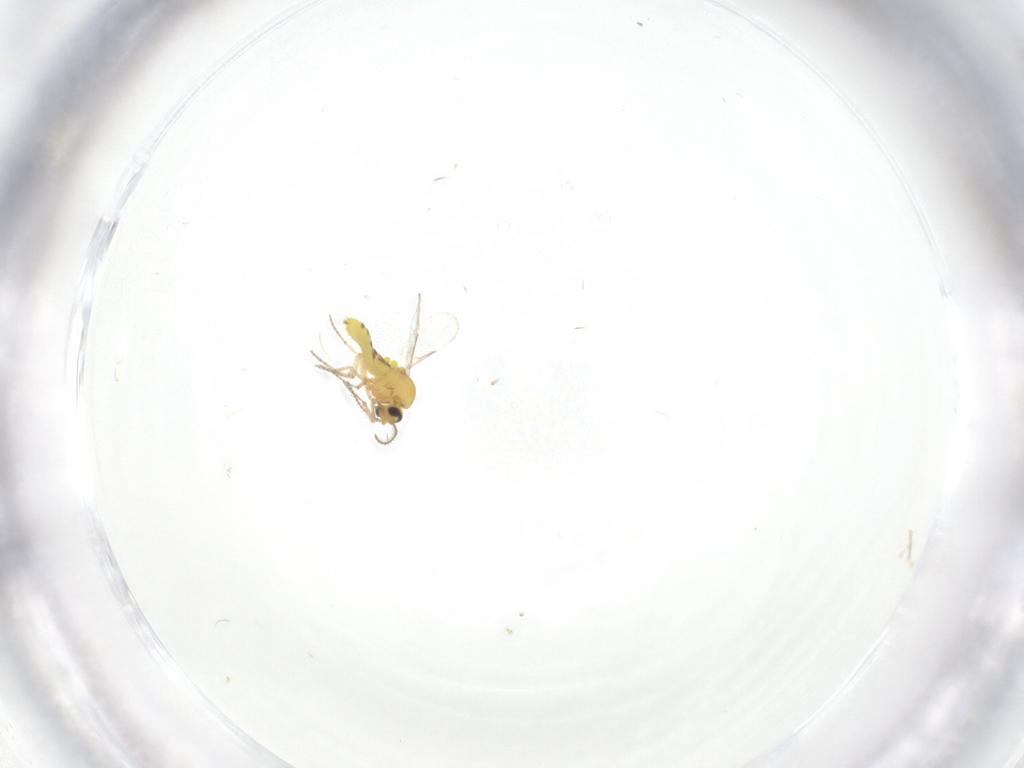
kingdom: Animalia
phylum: Arthropoda
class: Insecta
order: Diptera
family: Ceratopogonidae
